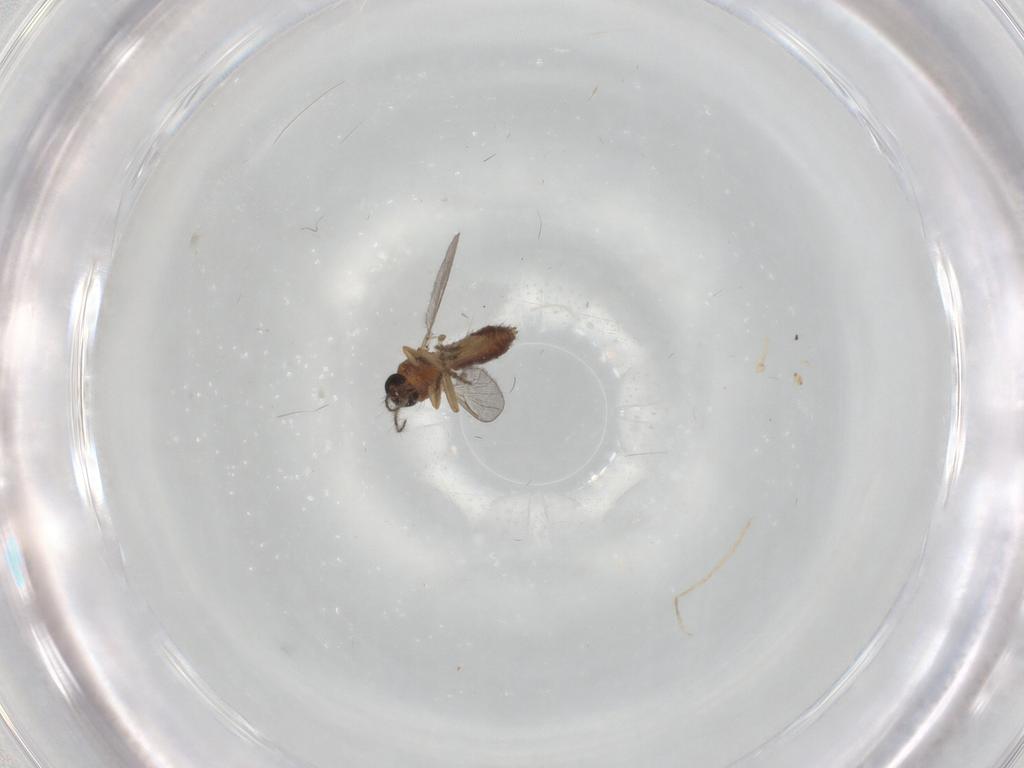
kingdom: Animalia
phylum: Arthropoda
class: Insecta
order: Diptera
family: Ceratopogonidae
